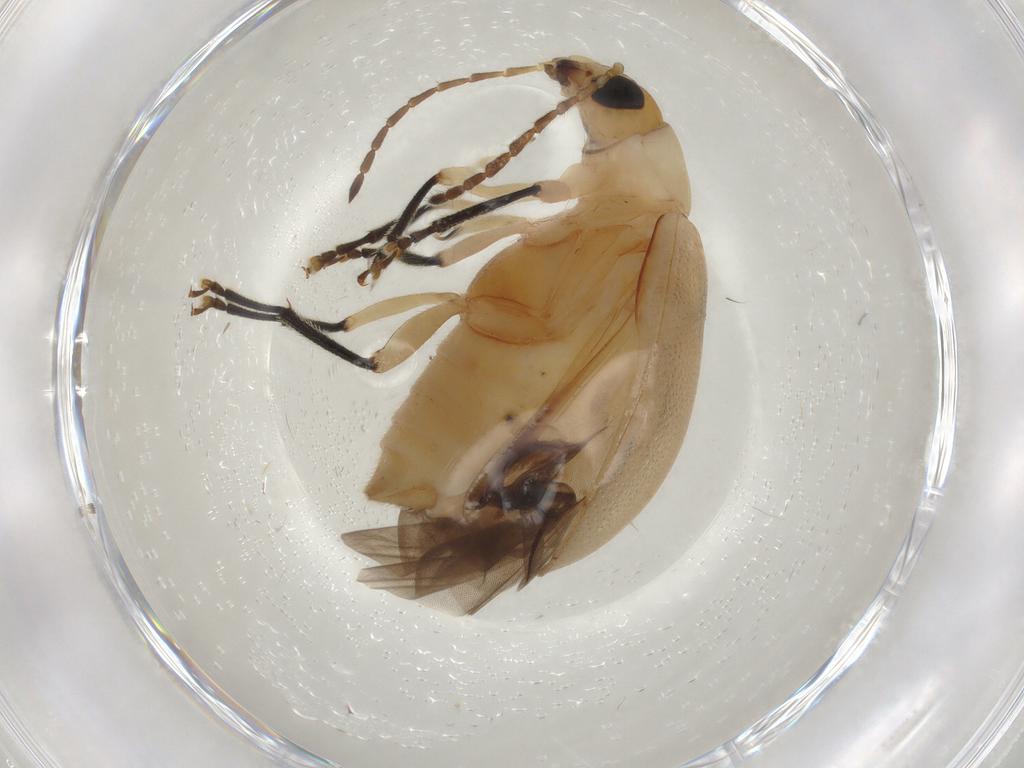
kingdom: Animalia
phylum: Arthropoda
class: Insecta
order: Coleoptera
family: Chrysomelidae
